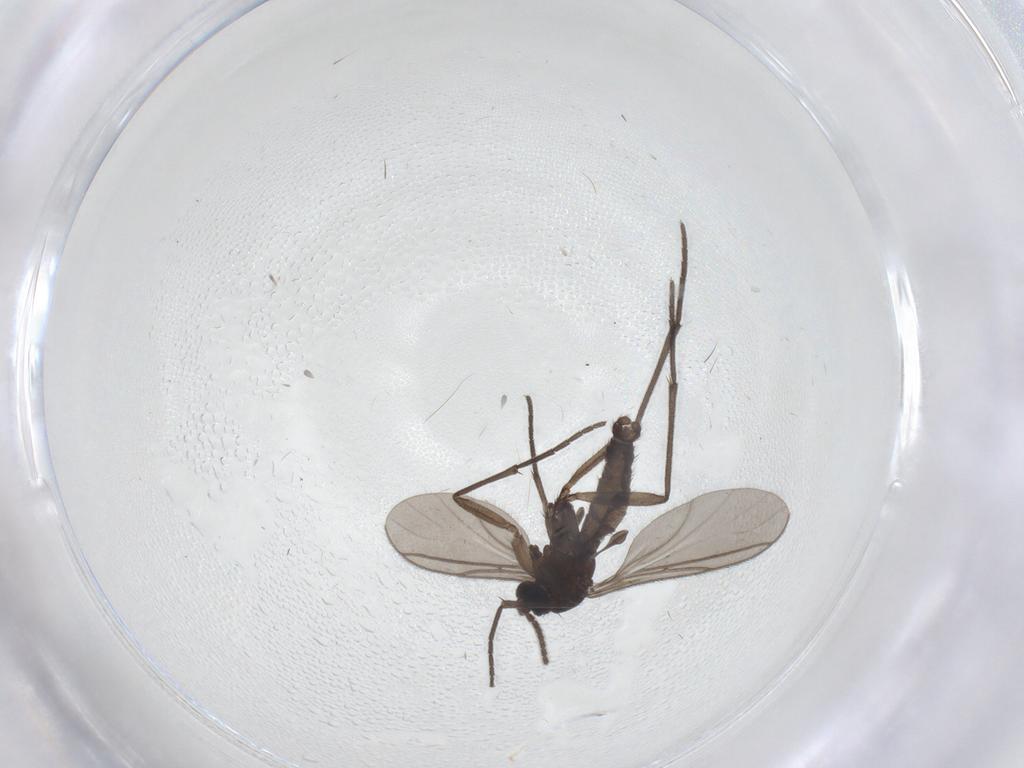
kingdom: Animalia
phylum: Arthropoda
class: Insecta
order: Diptera
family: Sciaridae
